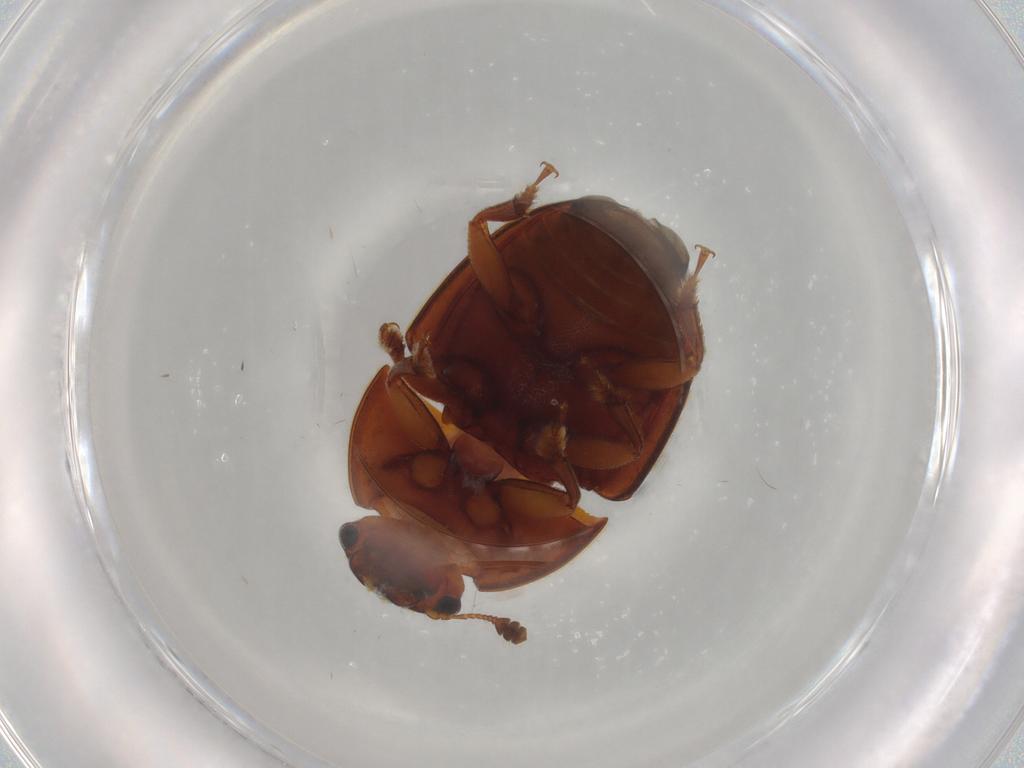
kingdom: Animalia
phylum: Arthropoda
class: Insecta
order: Coleoptera
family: Nitidulidae
